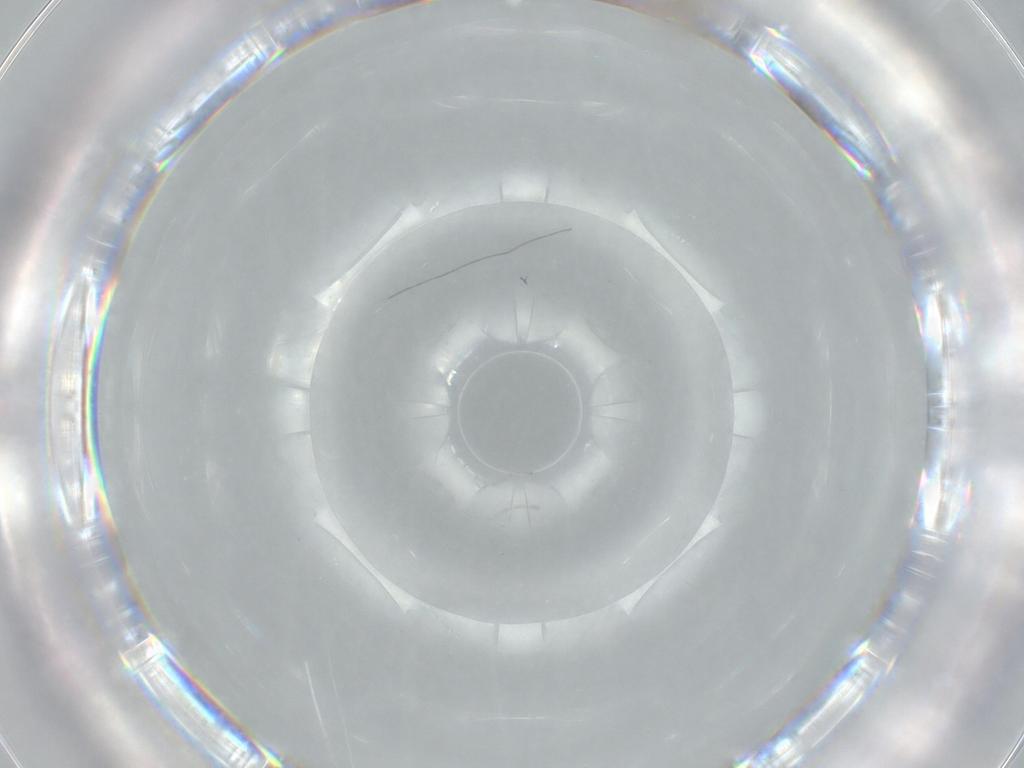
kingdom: Animalia
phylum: Arthropoda
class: Insecta
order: Diptera
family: Cecidomyiidae
